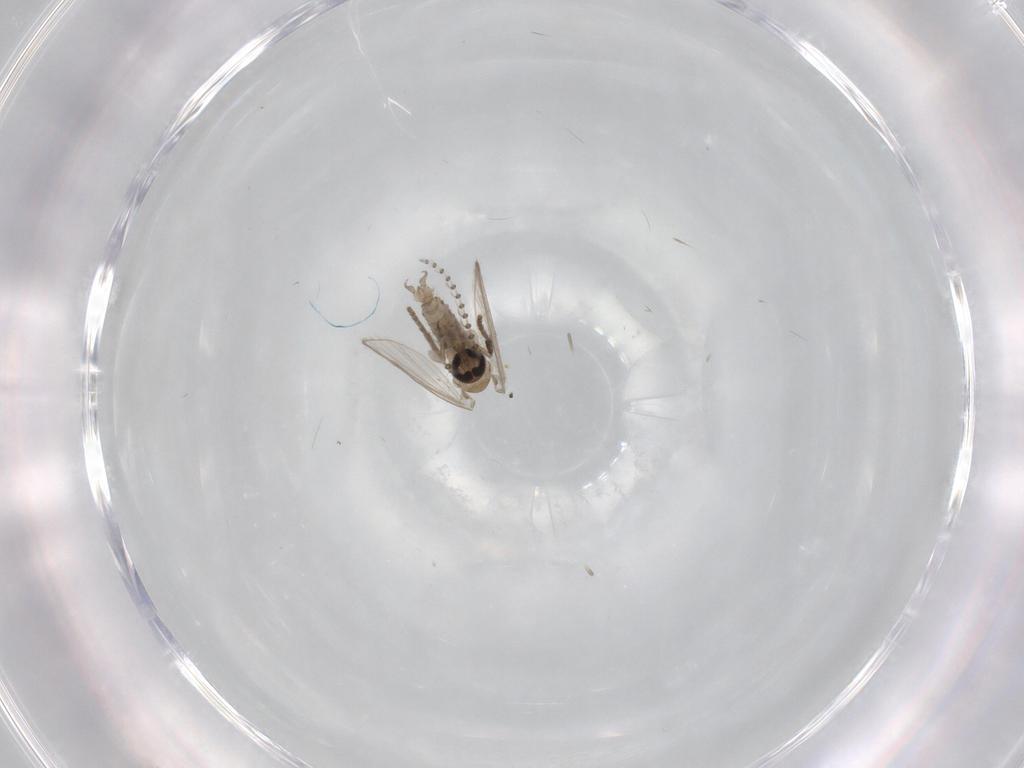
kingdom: Animalia
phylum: Arthropoda
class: Insecta
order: Diptera
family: Psychodidae
